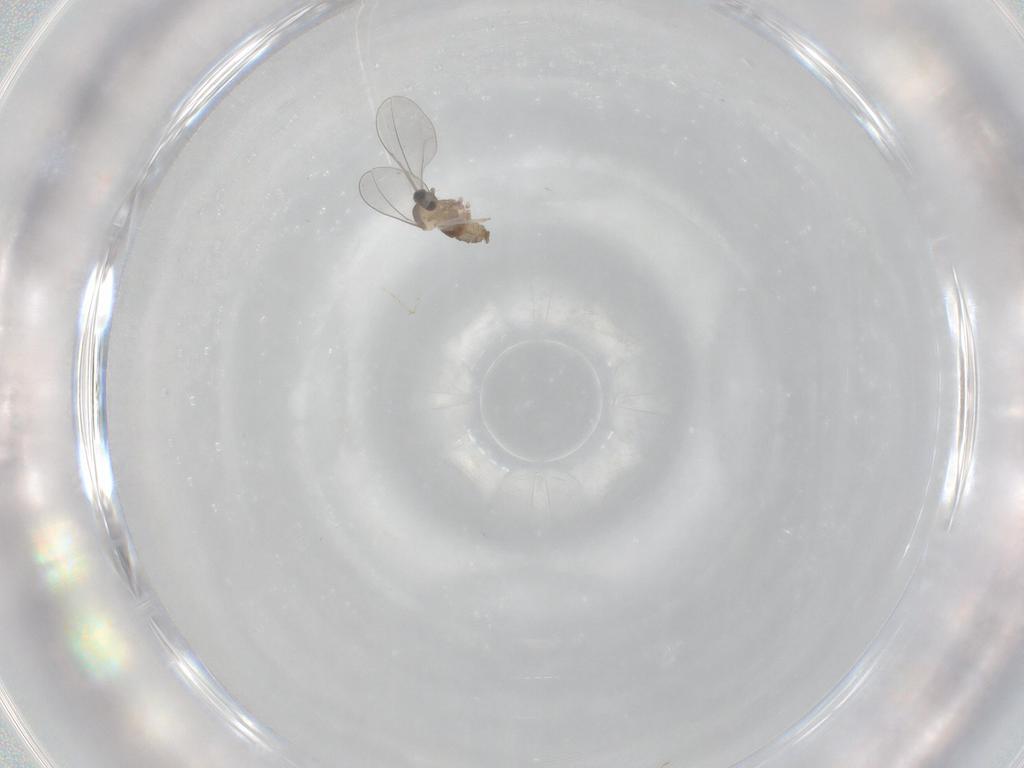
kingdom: Animalia
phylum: Arthropoda
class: Insecta
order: Diptera
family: Cecidomyiidae
